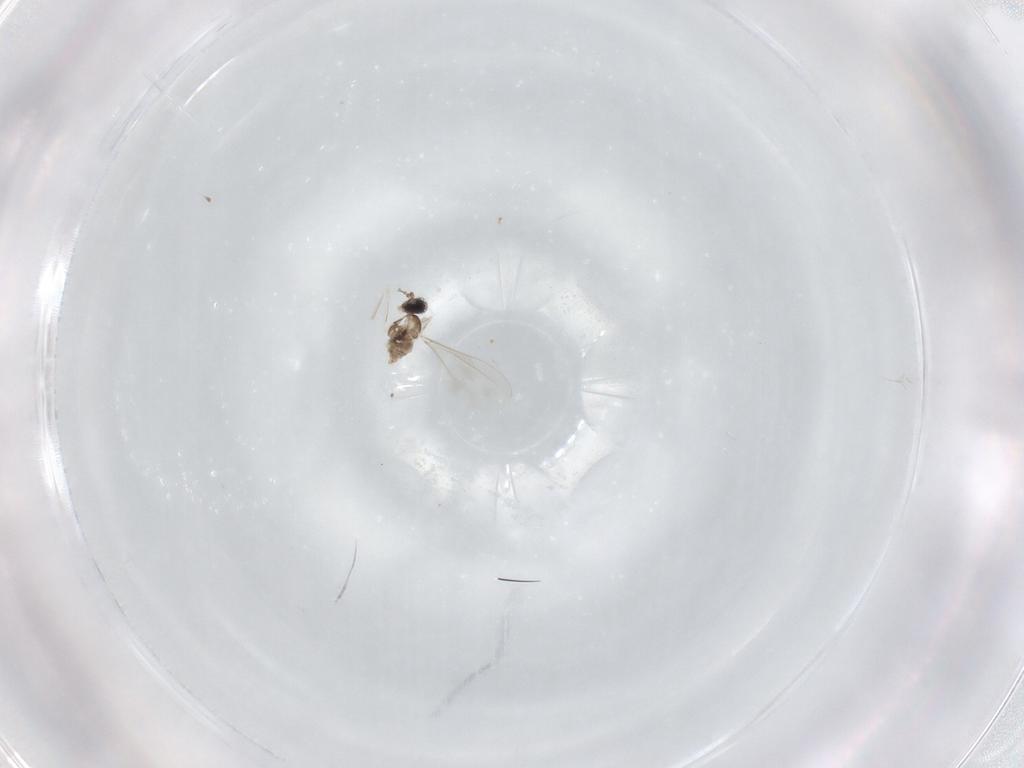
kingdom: Animalia
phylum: Arthropoda
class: Insecta
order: Diptera
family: Cecidomyiidae
